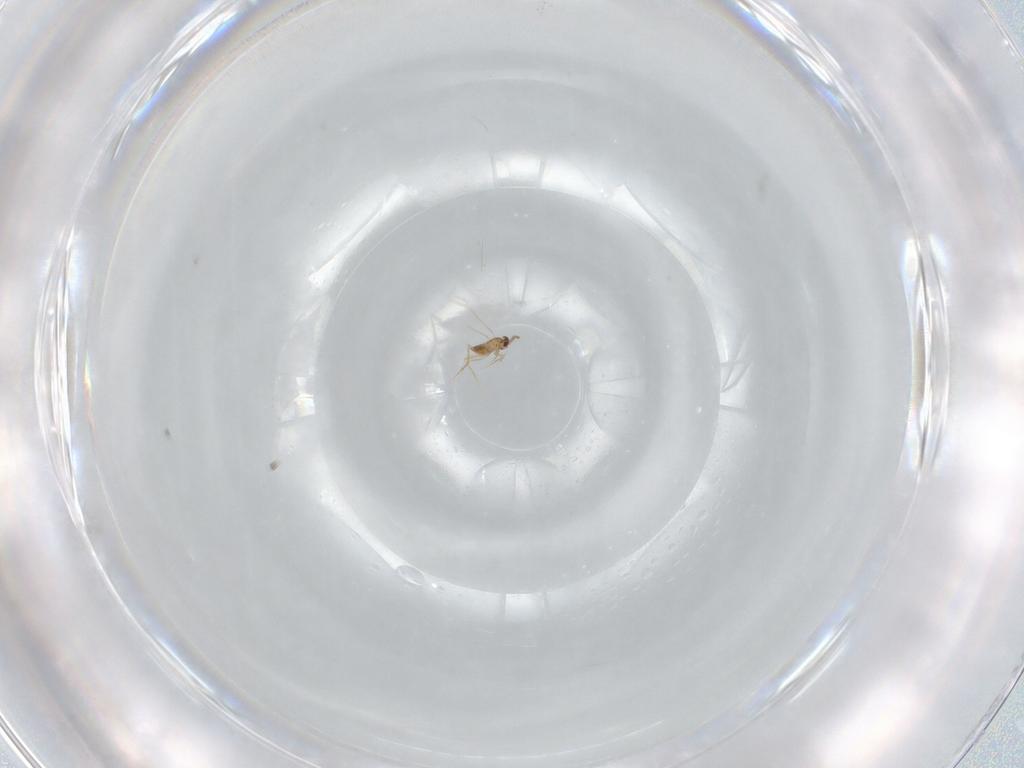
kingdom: Animalia
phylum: Arthropoda
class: Insecta
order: Hymenoptera
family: Mymaridae
